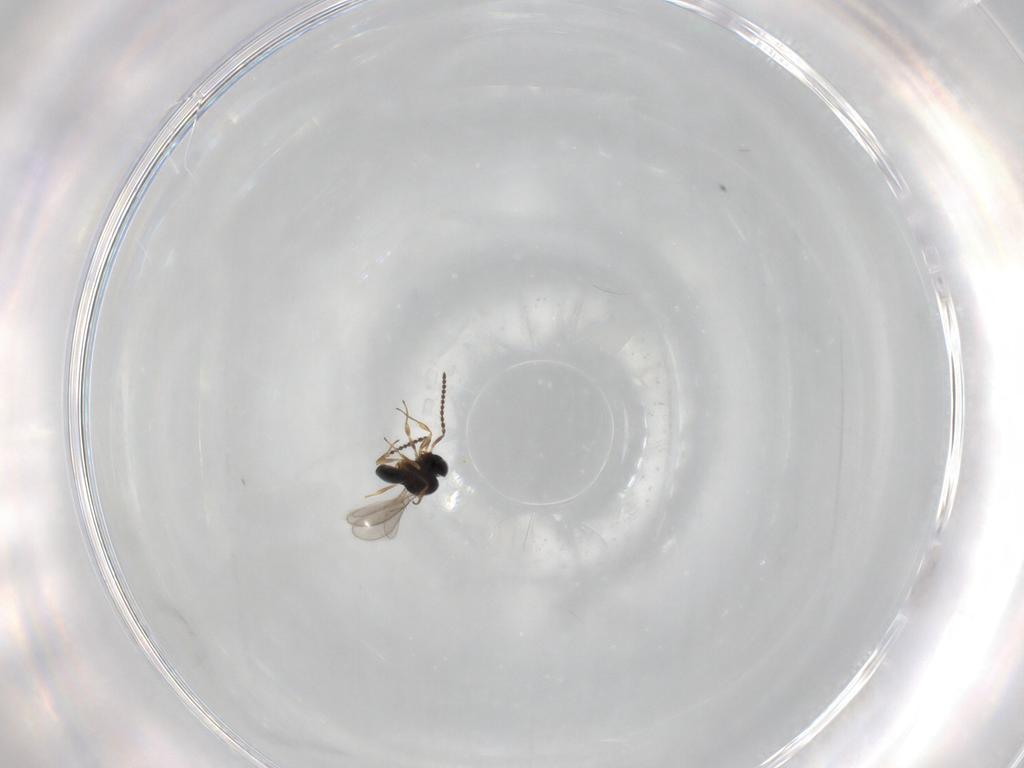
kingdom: Animalia
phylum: Arthropoda
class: Insecta
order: Hymenoptera
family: Scelionidae
